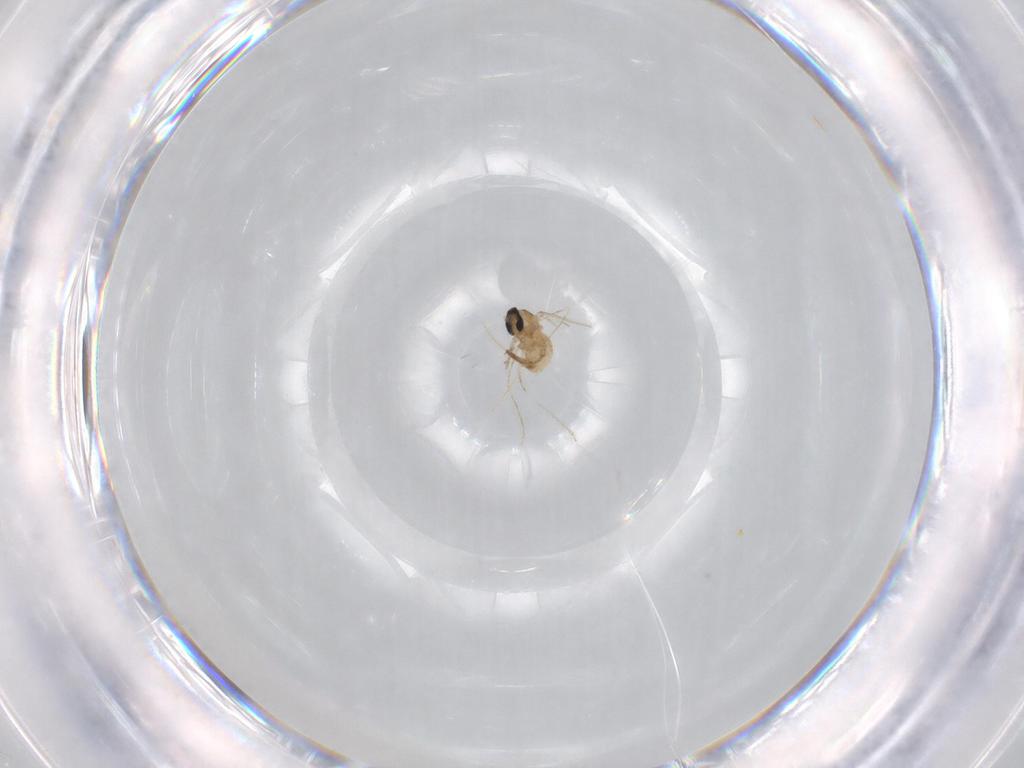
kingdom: Animalia
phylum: Arthropoda
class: Insecta
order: Diptera
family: Cecidomyiidae
